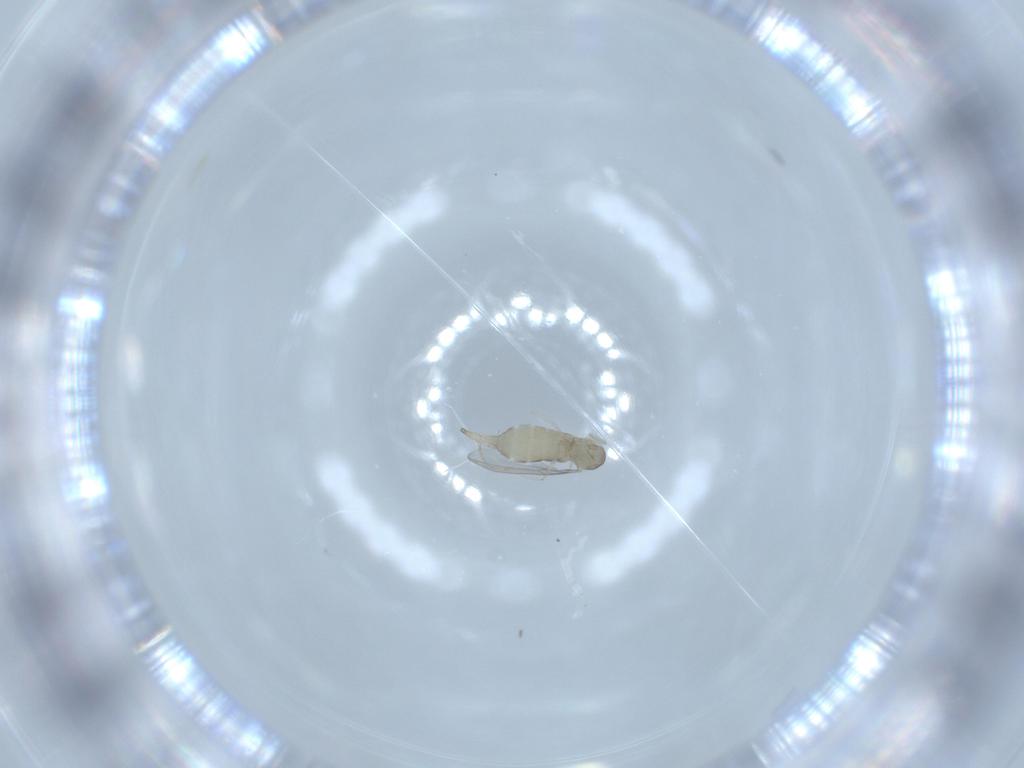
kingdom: Animalia
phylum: Arthropoda
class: Insecta
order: Diptera
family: Cecidomyiidae
